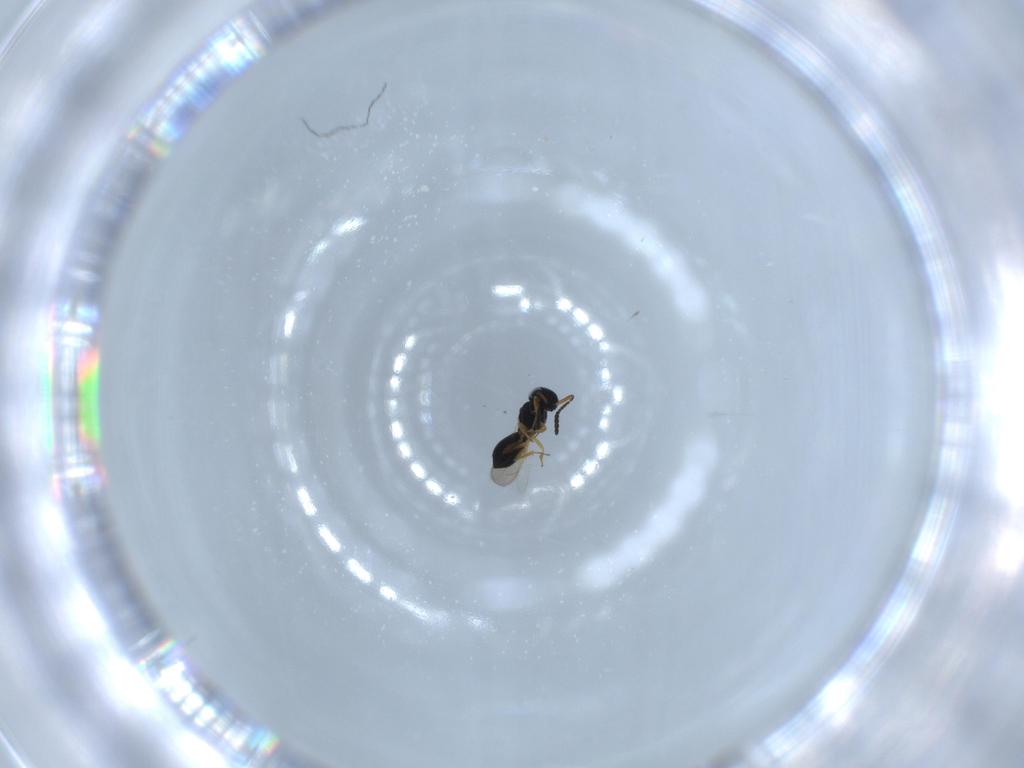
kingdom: Animalia
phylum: Arthropoda
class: Insecta
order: Hymenoptera
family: Scelionidae
